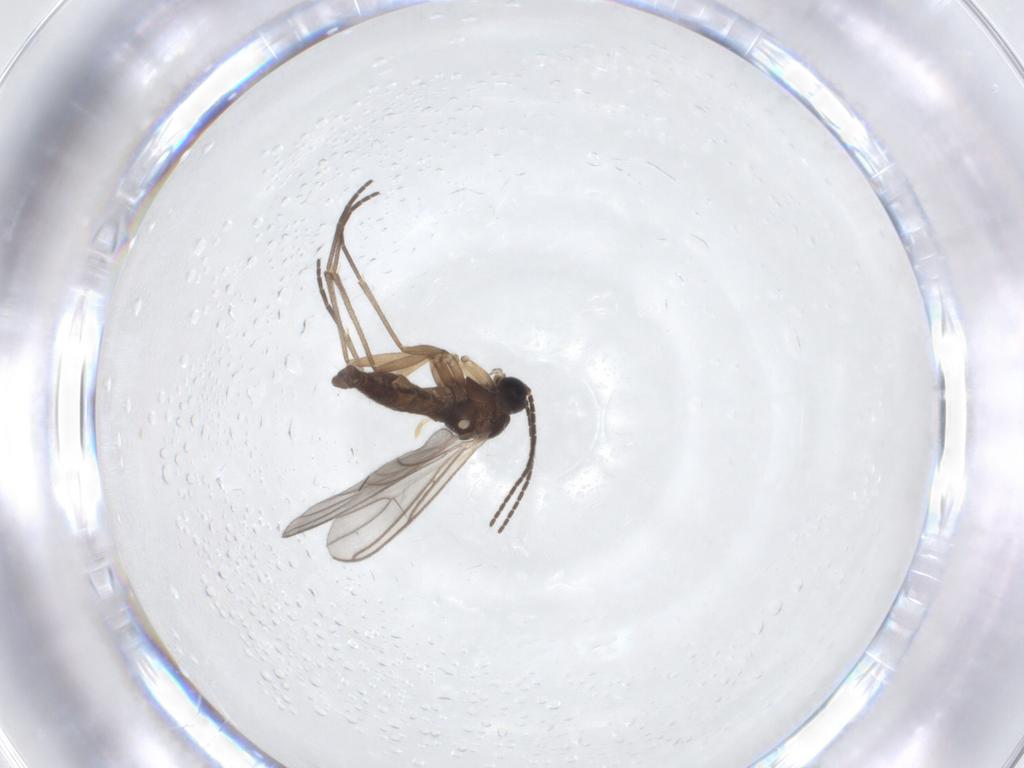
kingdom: Animalia
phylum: Arthropoda
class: Insecta
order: Diptera
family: Sciaridae
